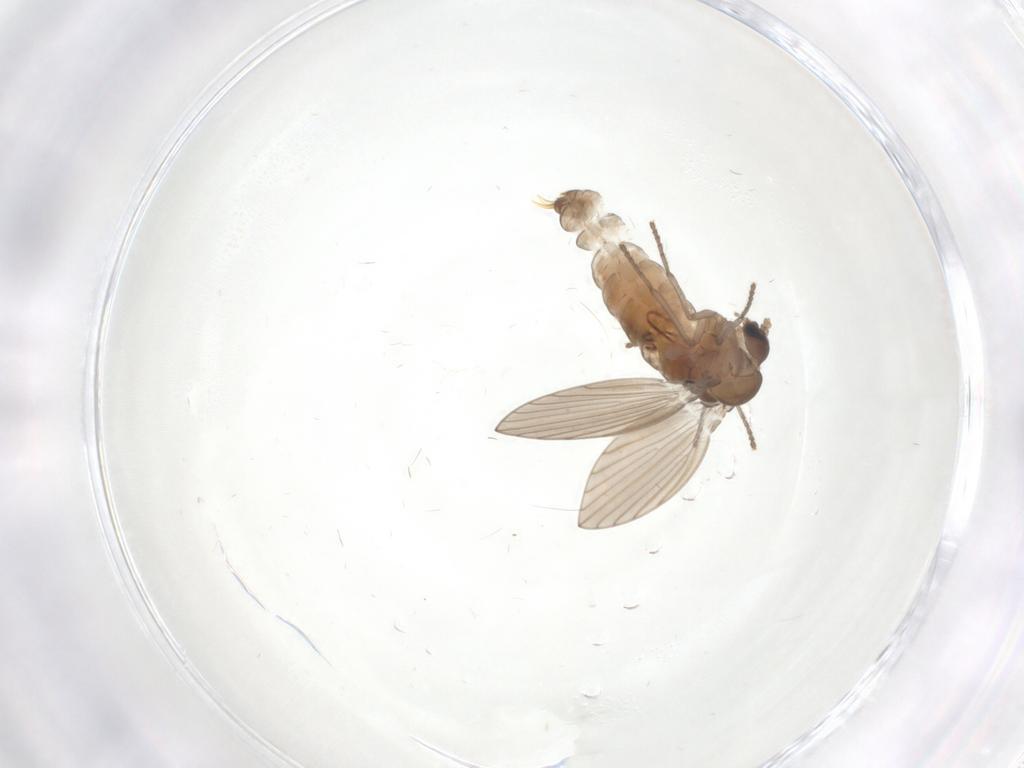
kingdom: Animalia
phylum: Arthropoda
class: Insecta
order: Diptera
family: Psychodidae
